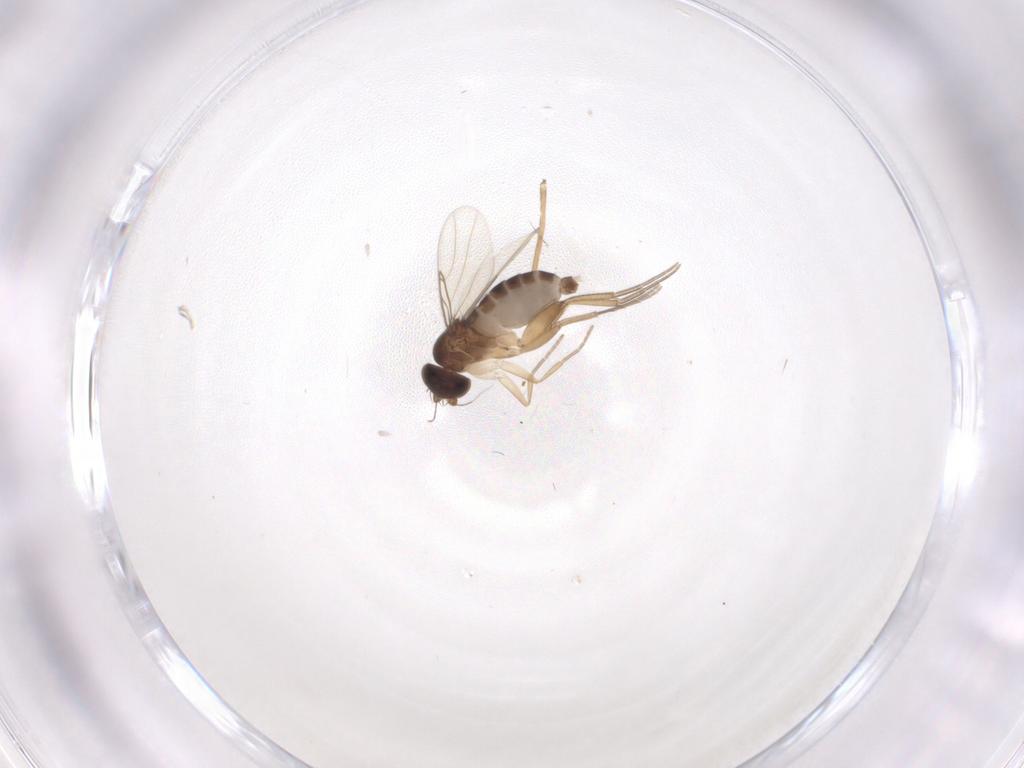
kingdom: Animalia
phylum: Arthropoda
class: Insecta
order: Diptera
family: Phoridae
